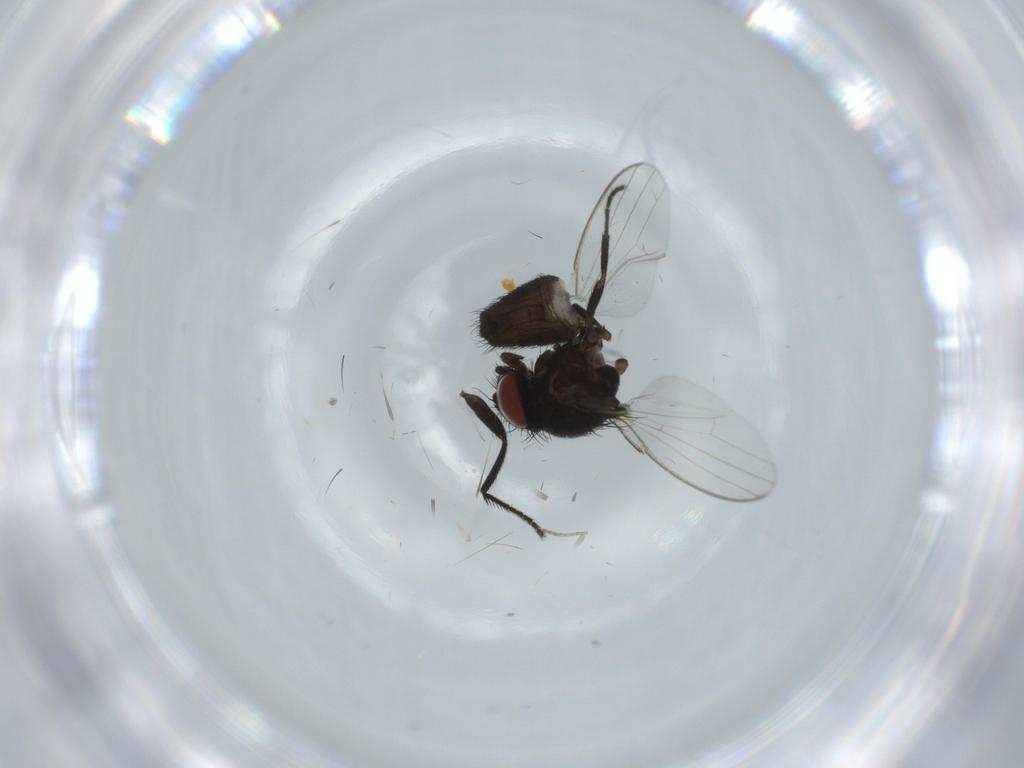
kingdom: Animalia
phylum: Arthropoda
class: Insecta
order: Diptera
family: Milichiidae
